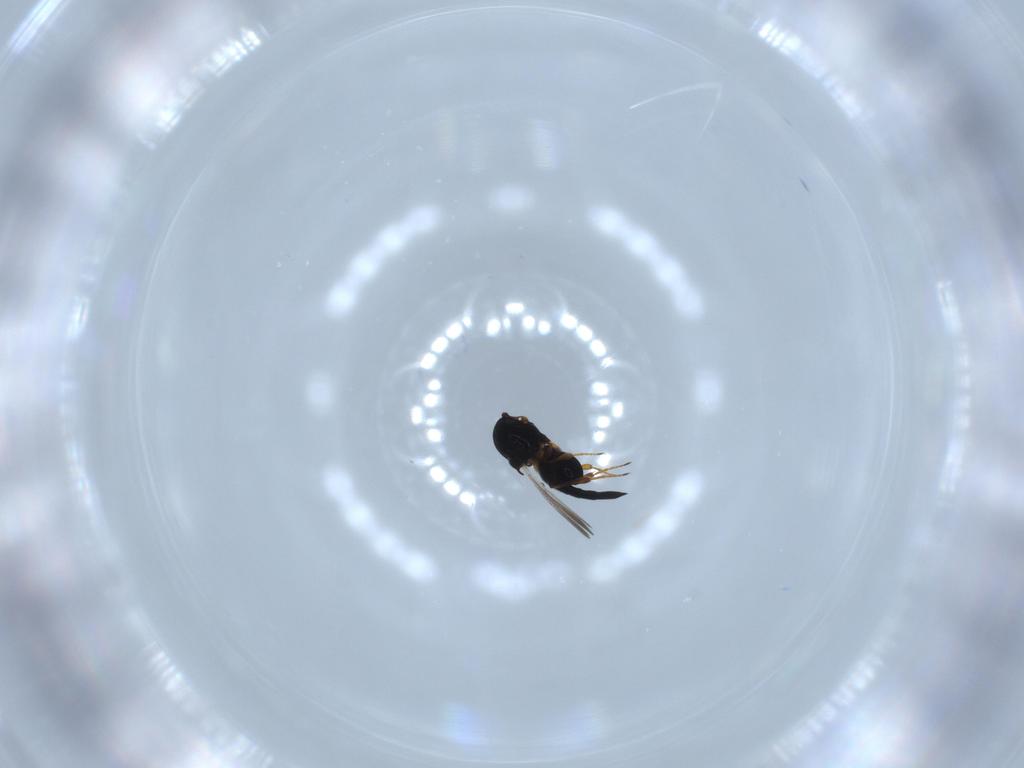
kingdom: Animalia
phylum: Arthropoda
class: Insecta
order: Hymenoptera
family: Platygastridae
